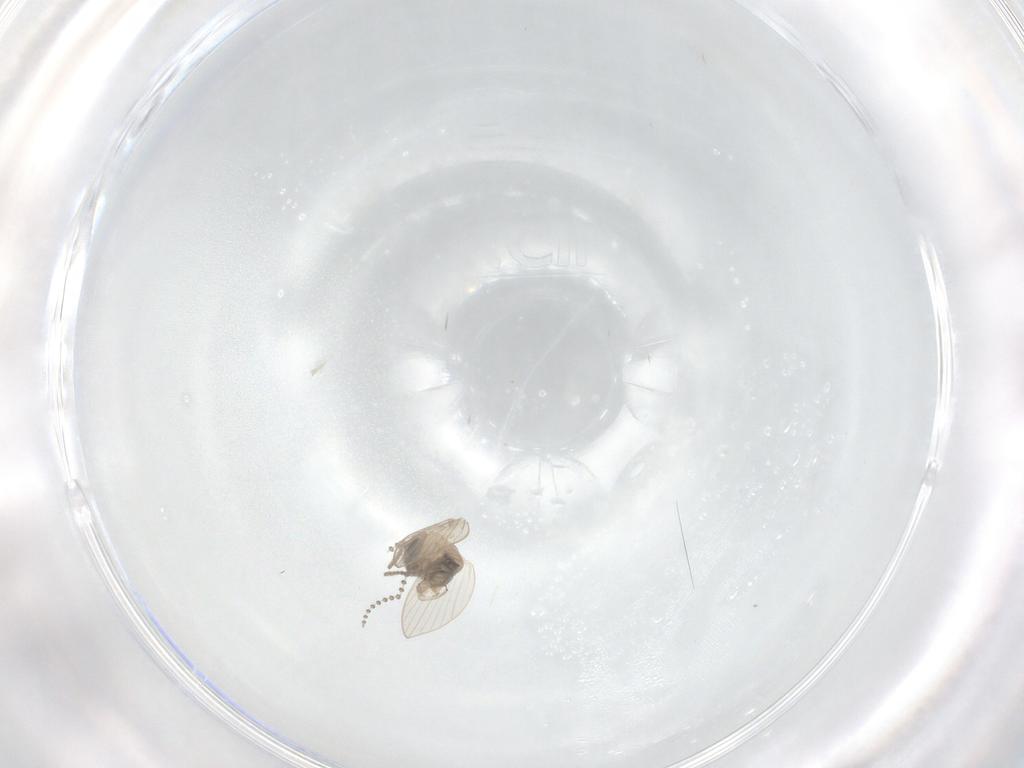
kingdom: Animalia
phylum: Arthropoda
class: Insecta
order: Diptera
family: Psychodidae
